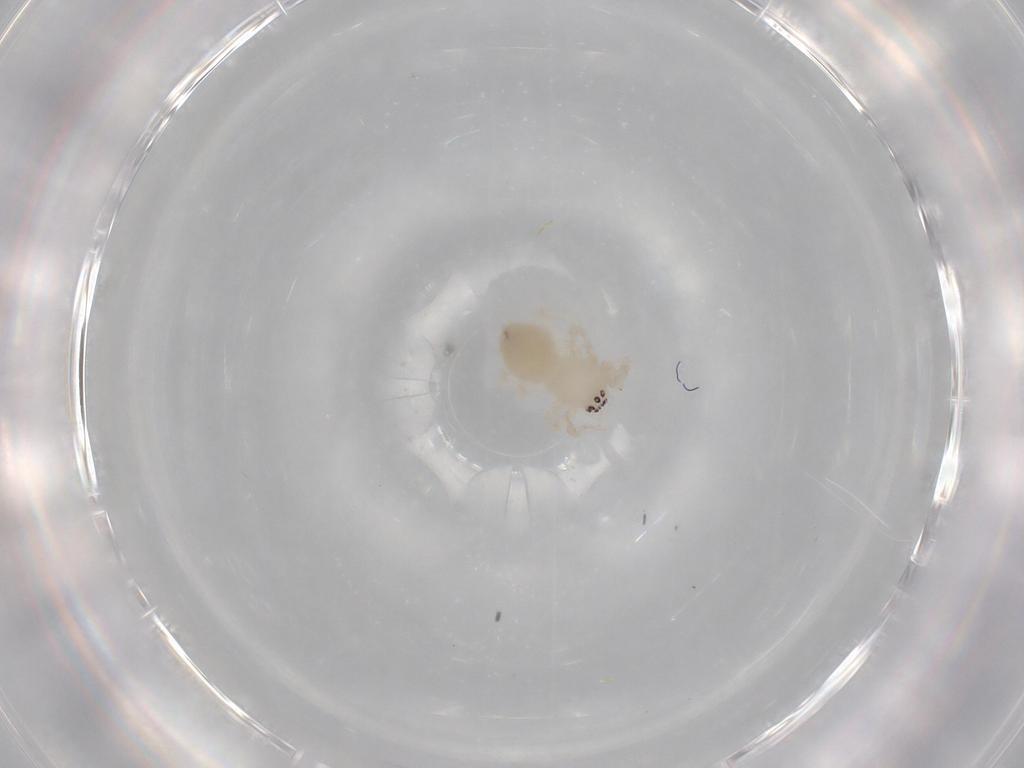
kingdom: Animalia
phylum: Arthropoda
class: Arachnida
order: Araneae
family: Anyphaenidae
